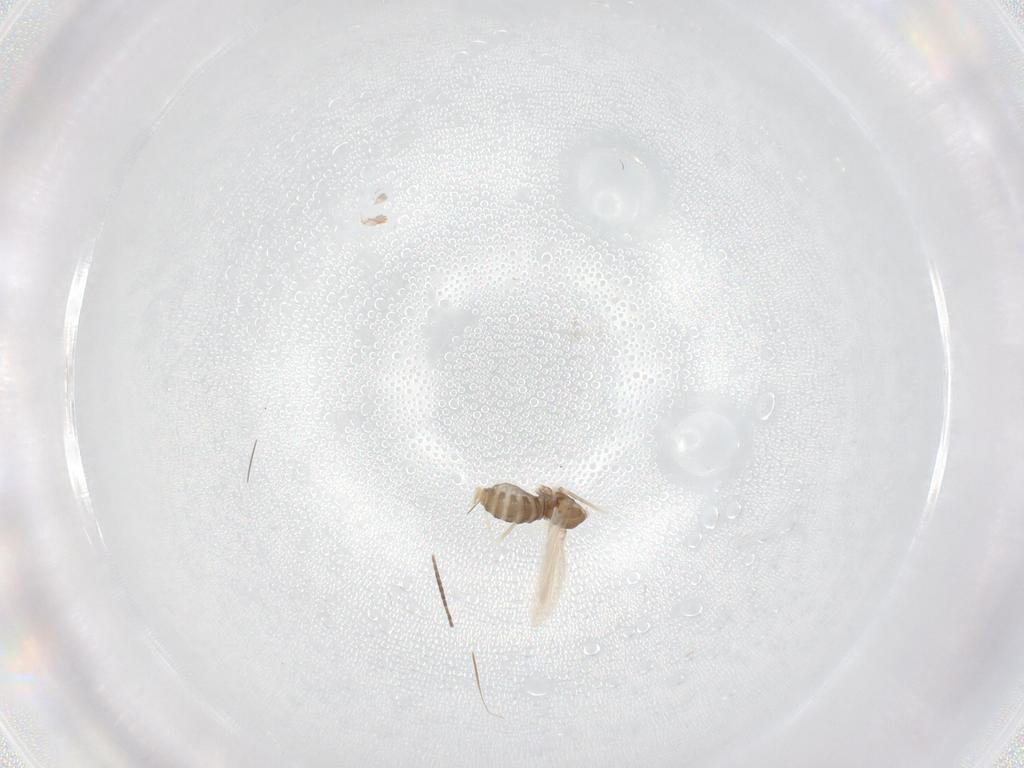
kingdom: Animalia
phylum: Arthropoda
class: Insecta
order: Diptera
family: Cecidomyiidae
